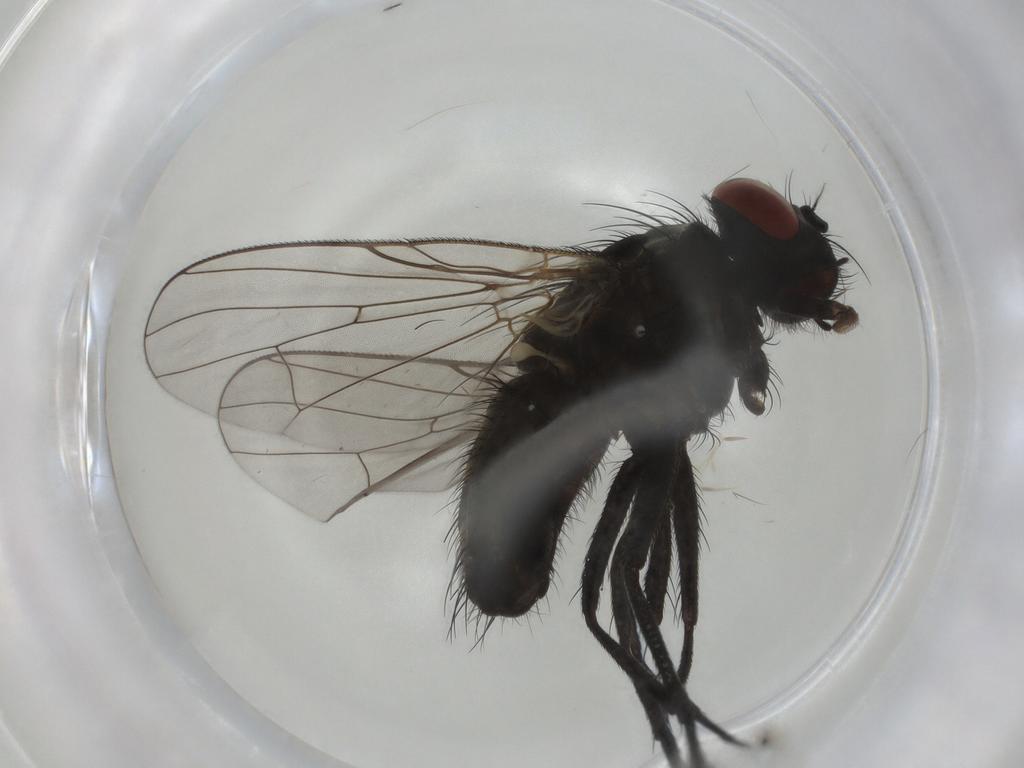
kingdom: Animalia
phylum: Arthropoda
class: Insecta
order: Diptera
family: Muscidae
